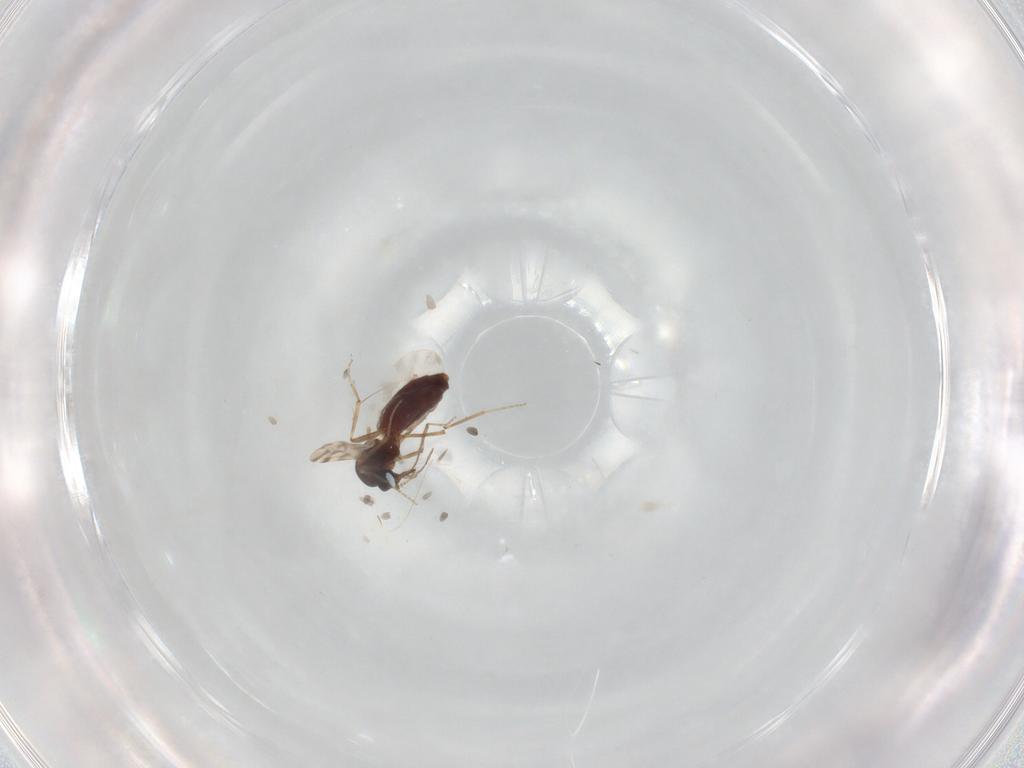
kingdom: Animalia
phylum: Arthropoda
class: Insecta
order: Diptera
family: Ceratopogonidae
